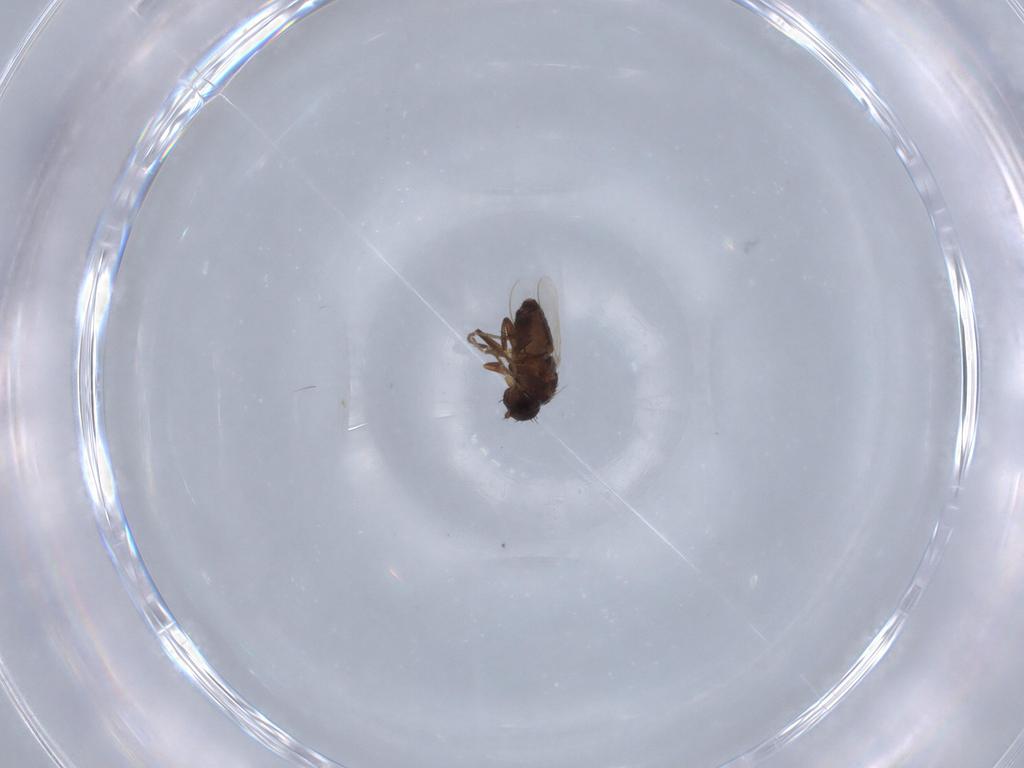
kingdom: Animalia
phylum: Arthropoda
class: Insecta
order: Diptera
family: Sphaeroceridae
